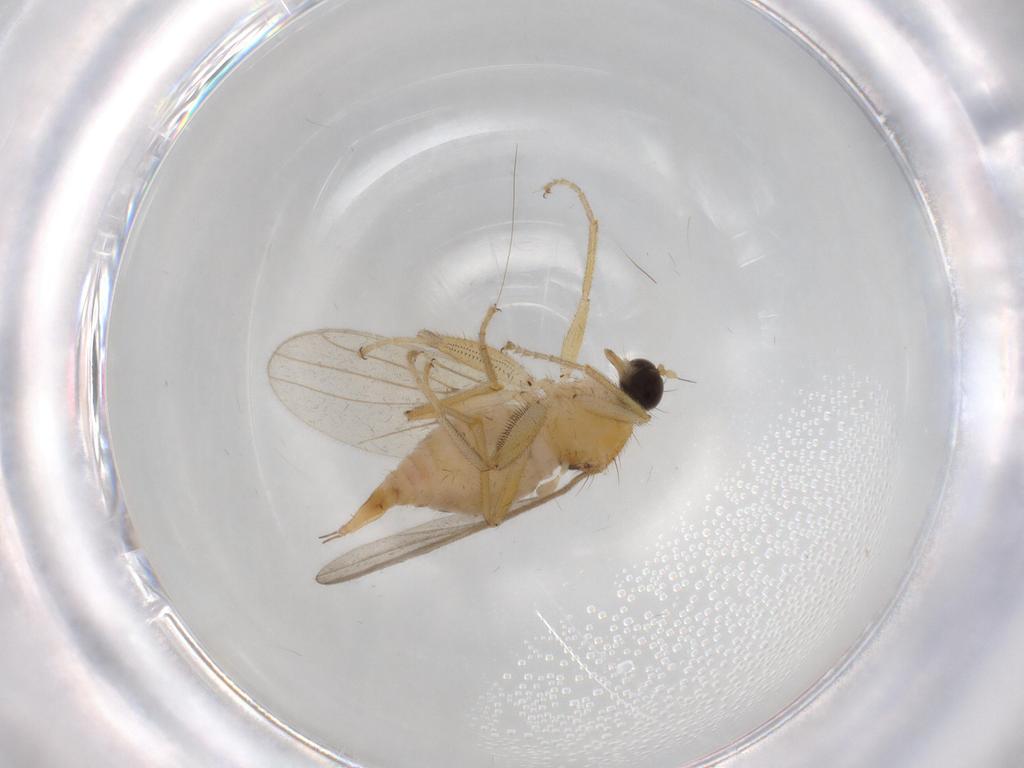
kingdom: Animalia
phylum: Arthropoda
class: Insecta
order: Diptera
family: Hybotidae
